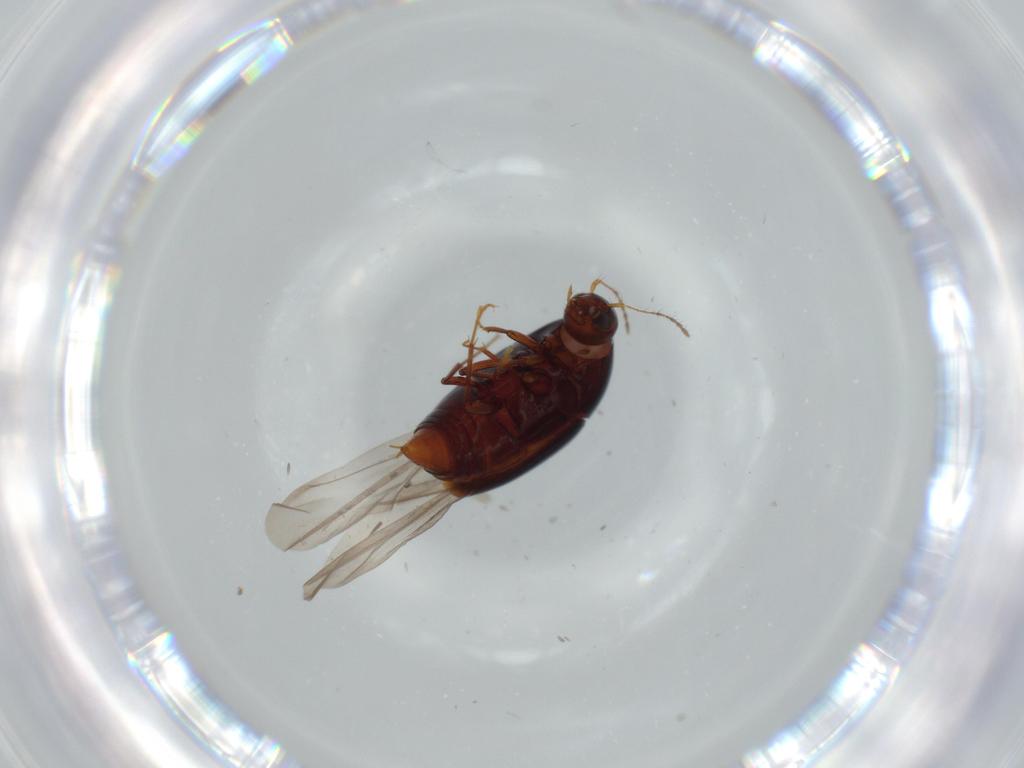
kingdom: Animalia
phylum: Arthropoda
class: Insecta
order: Coleoptera
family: Staphylinidae
